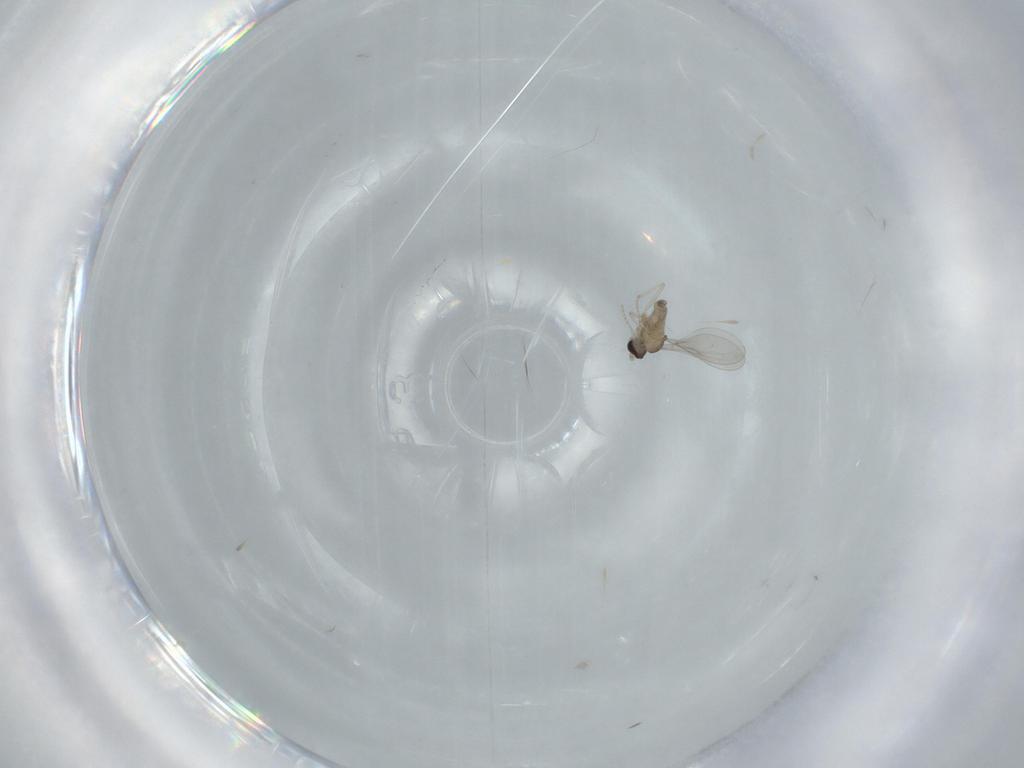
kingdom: Animalia
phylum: Arthropoda
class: Insecta
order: Diptera
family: Cecidomyiidae
